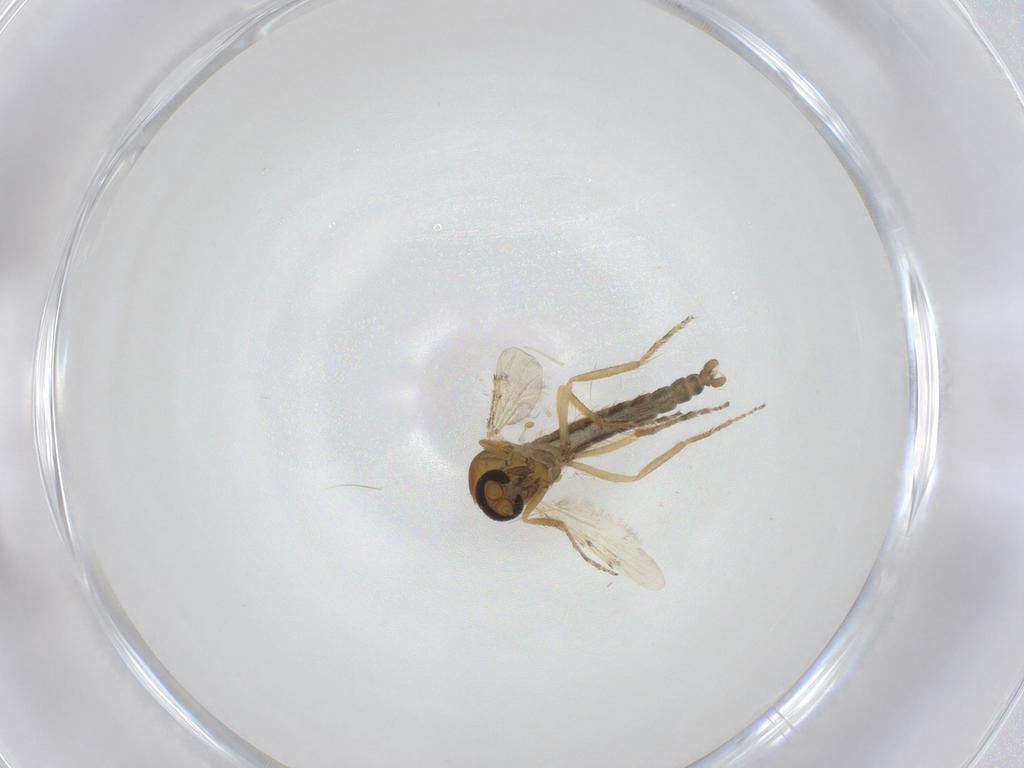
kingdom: Animalia
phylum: Arthropoda
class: Insecta
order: Diptera
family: Ceratopogonidae
